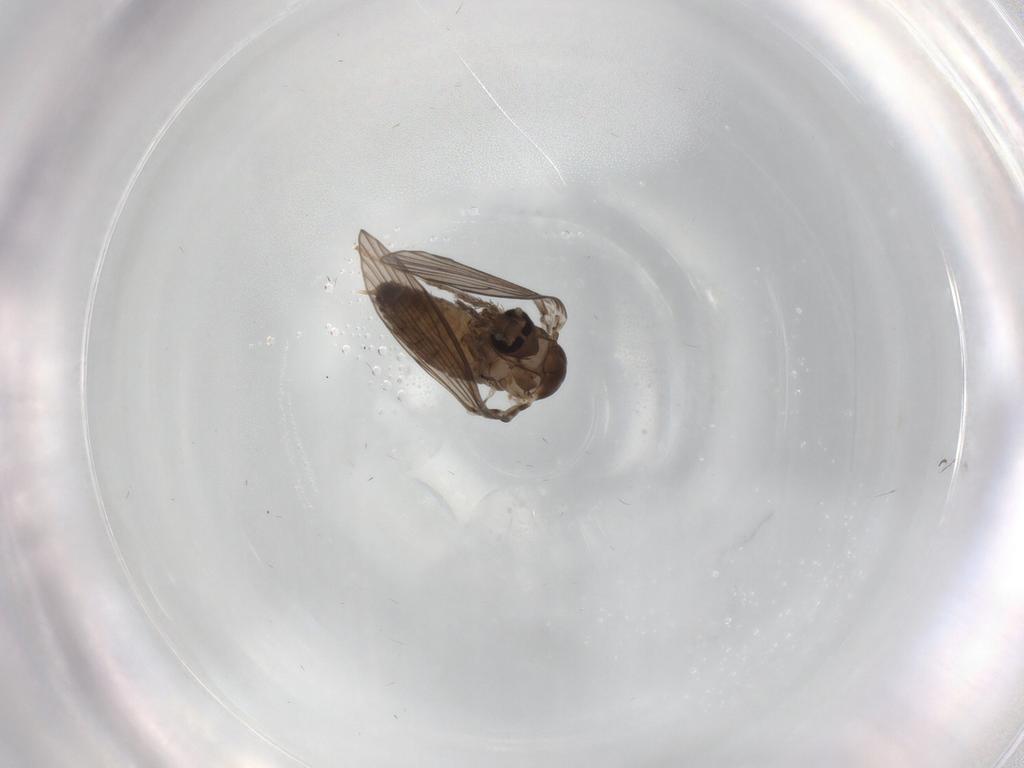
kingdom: Animalia
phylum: Arthropoda
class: Insecta
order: Diptera
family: Psychodidae
